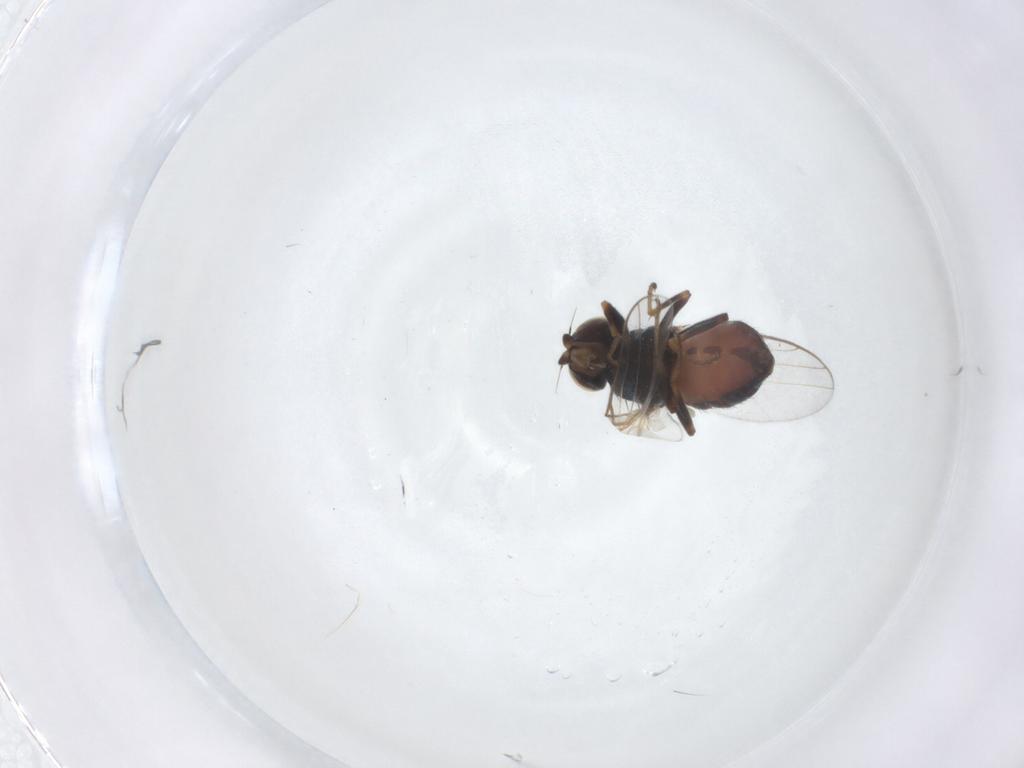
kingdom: Animalia
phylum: Arthropoda
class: Insecta
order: Diptera
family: Chloropidae
